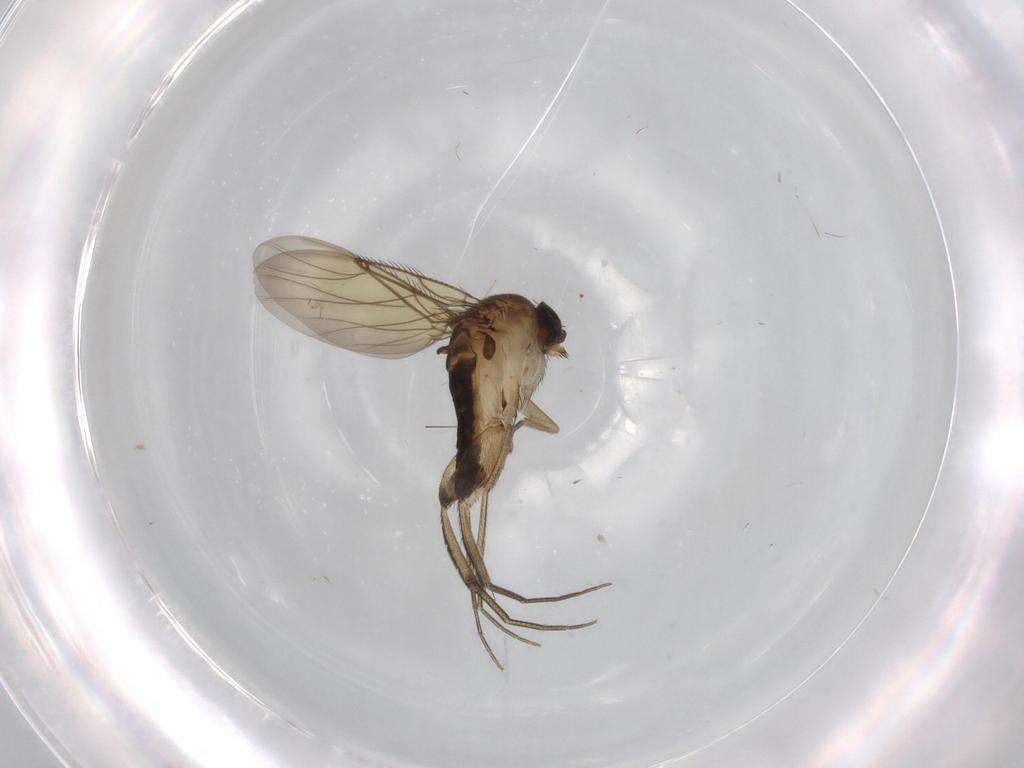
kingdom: Animalia
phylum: Arthropoda
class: Insecta
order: Diptera
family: Phoridae
